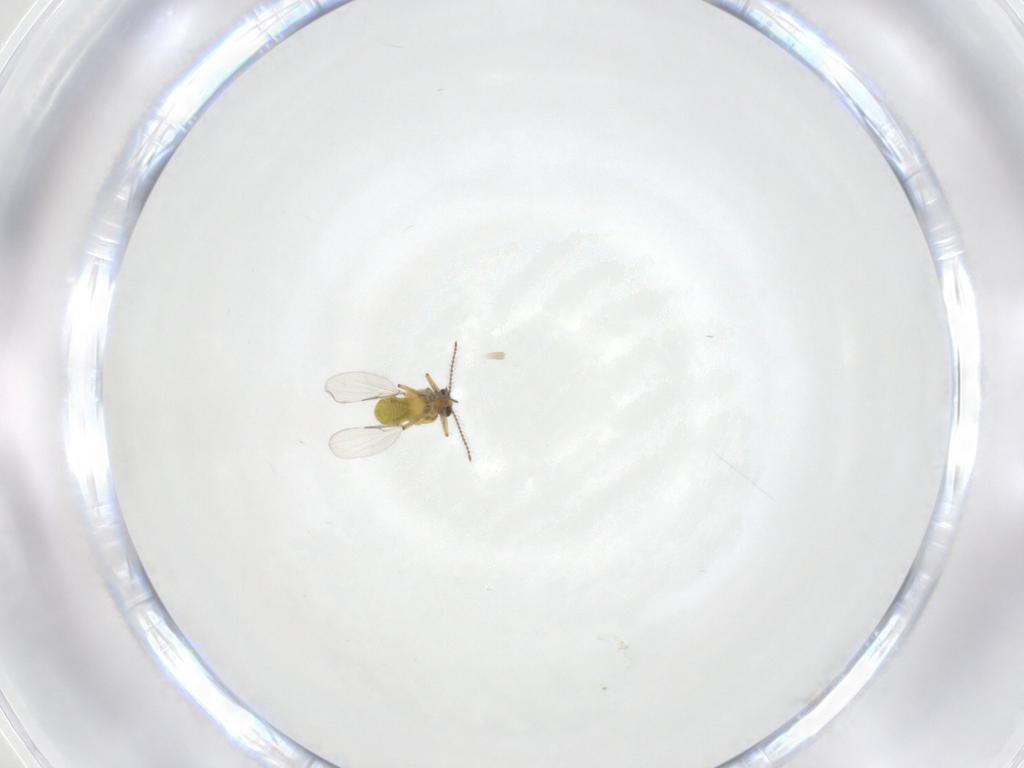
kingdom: Animalia
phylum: Arthropoda
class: Insecta
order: Diptera
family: Ceratopogonidae
